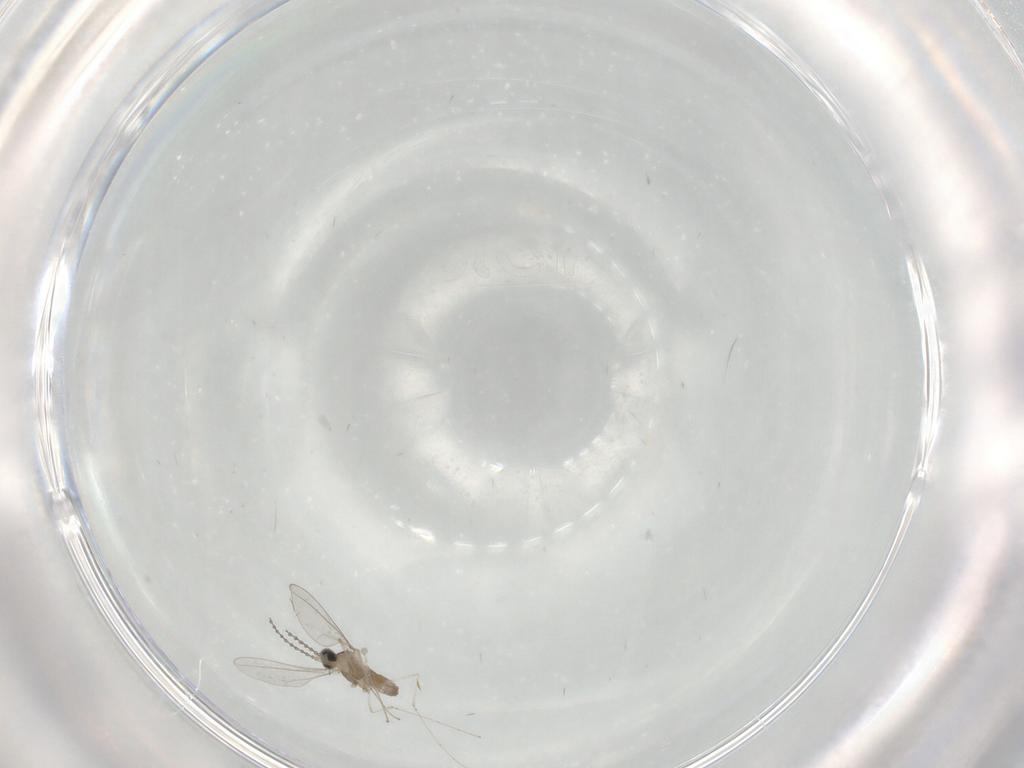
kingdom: Animalia
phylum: Arthropoda
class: Insecta
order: Diptera
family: Cecidomyiidae
